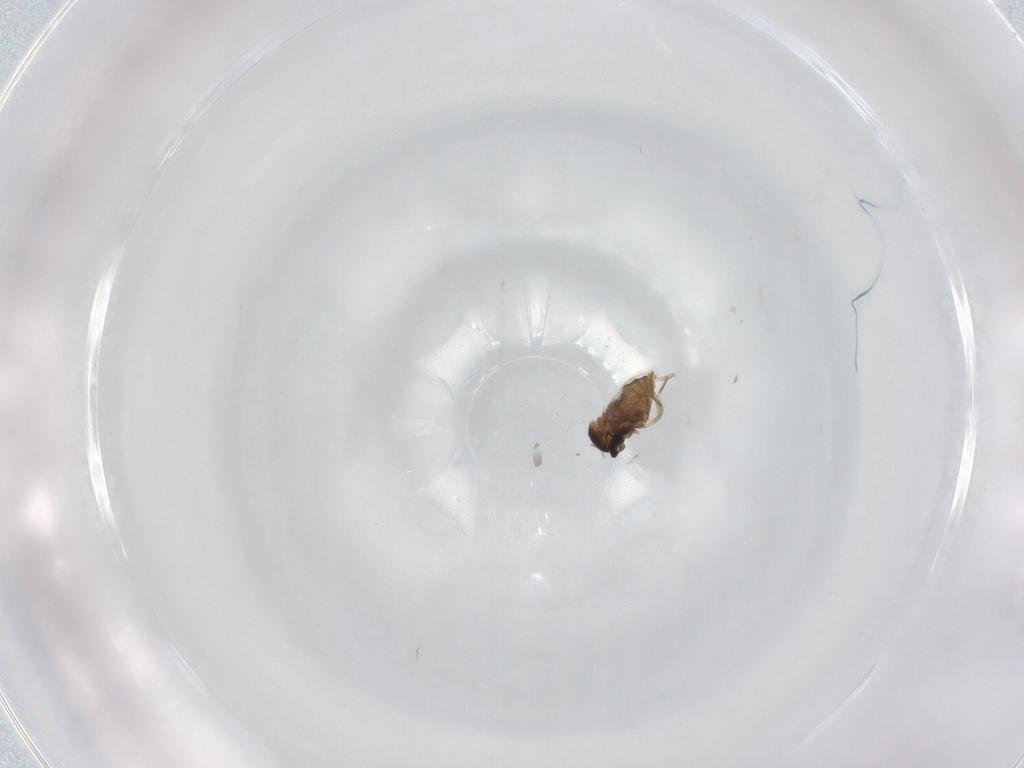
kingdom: Animalia
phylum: Arthropoda
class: Insecta
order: Diptera
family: Cecidomyiidae
